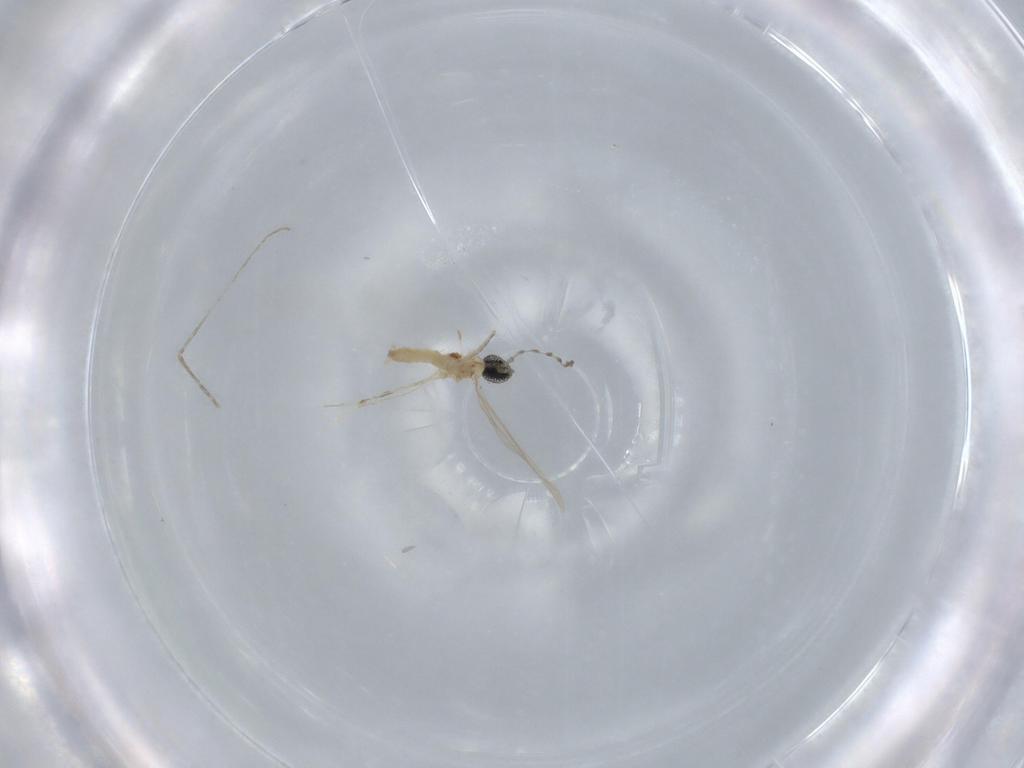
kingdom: Animalia
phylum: Arthropoda
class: Insecta
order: Diptera
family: Cecidomyiidae
